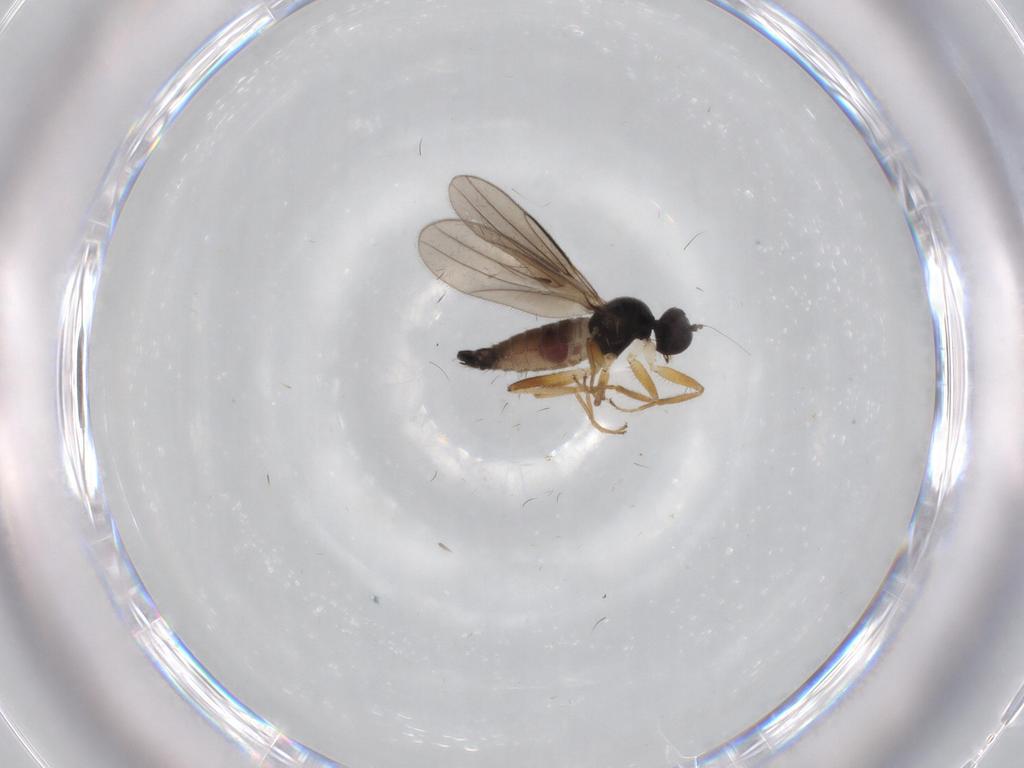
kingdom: Animalia
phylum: Arthropoda
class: Insecta
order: Diptera
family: Hybotidae
